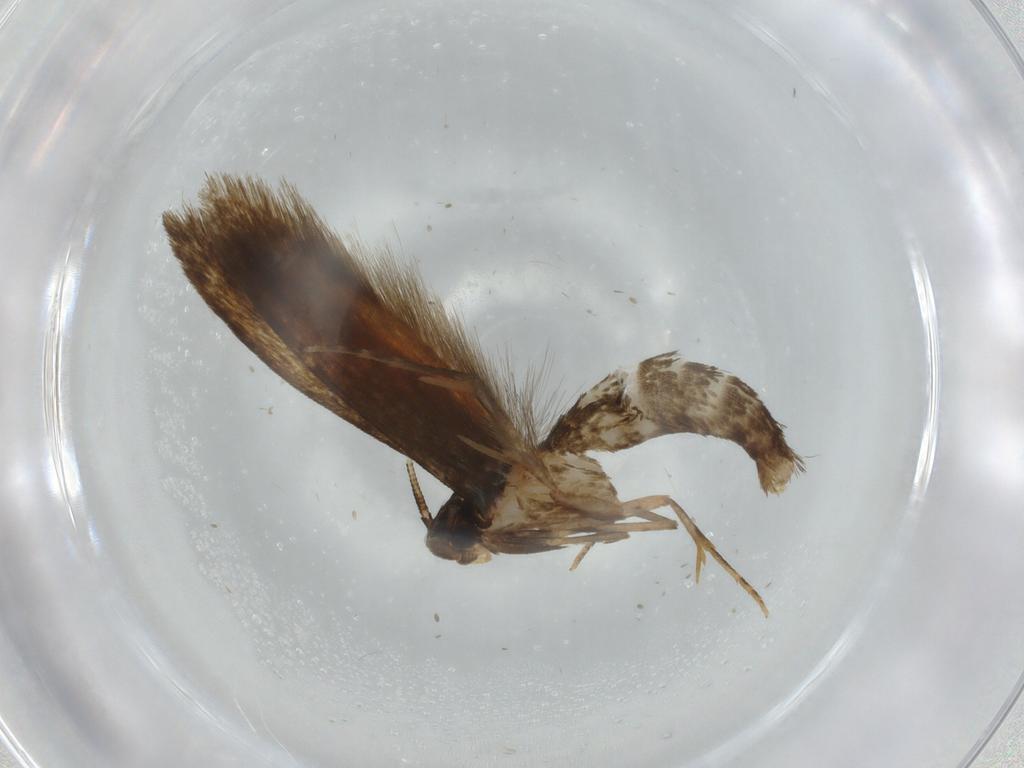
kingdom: Animalia
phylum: Arthropoda
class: Insecta
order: Lepidoptera
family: Tineidae
